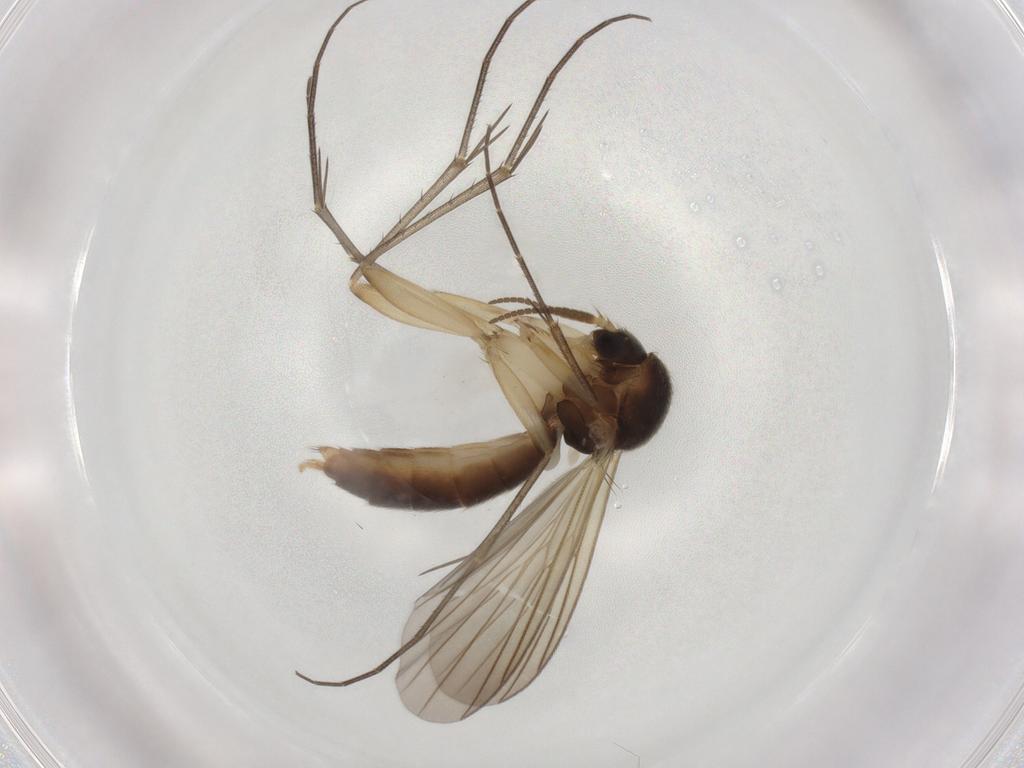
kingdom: Animalia
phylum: Arthropoda
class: Insecta
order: Diptera
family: Mycetophilidae
